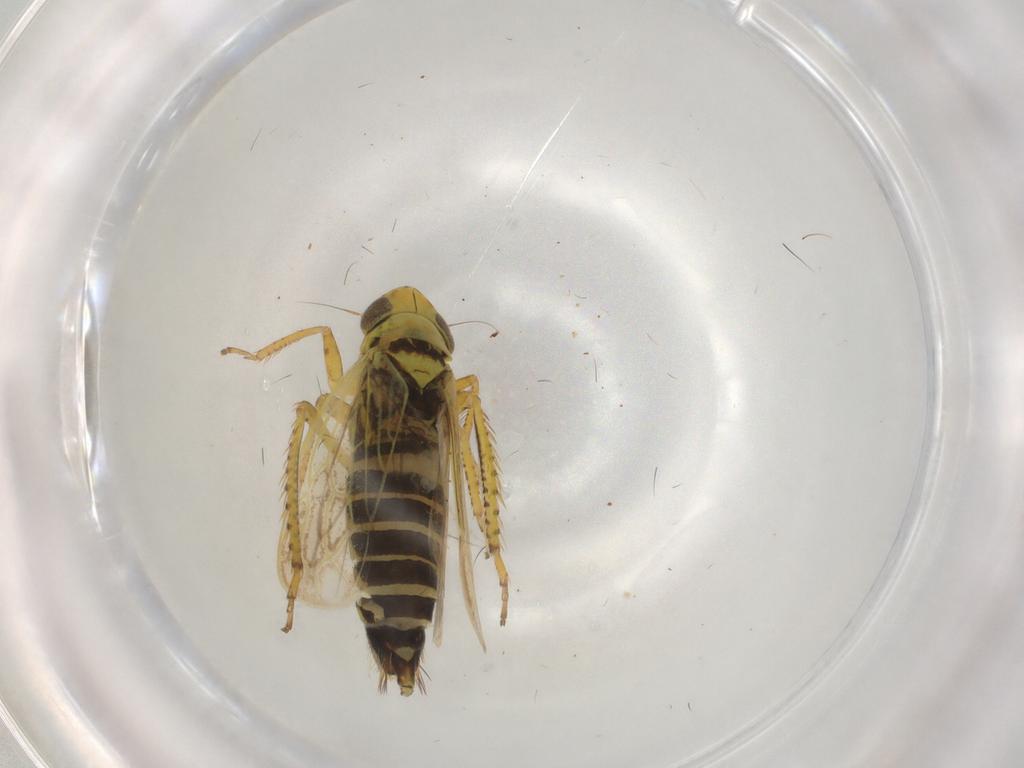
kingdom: Animalia
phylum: Arthropoda
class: Insecta
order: Hemiptera
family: Cicadellidae
